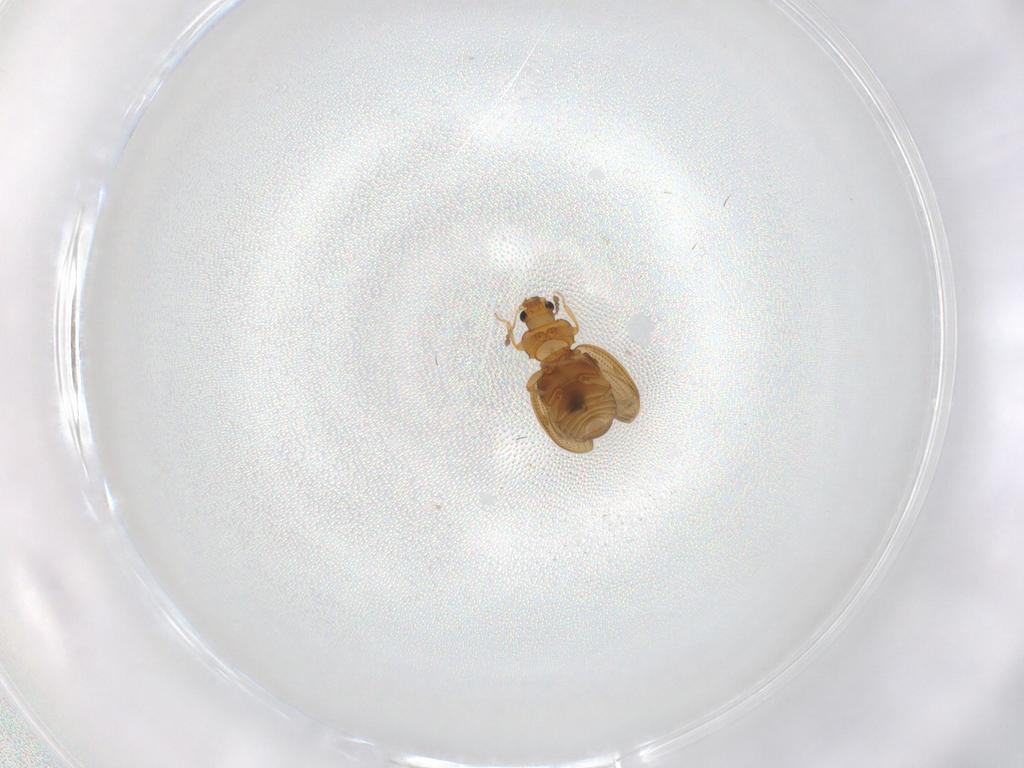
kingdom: Animalia
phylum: Arthropoda
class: Insecta
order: Coleoptera
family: Latridiidae
